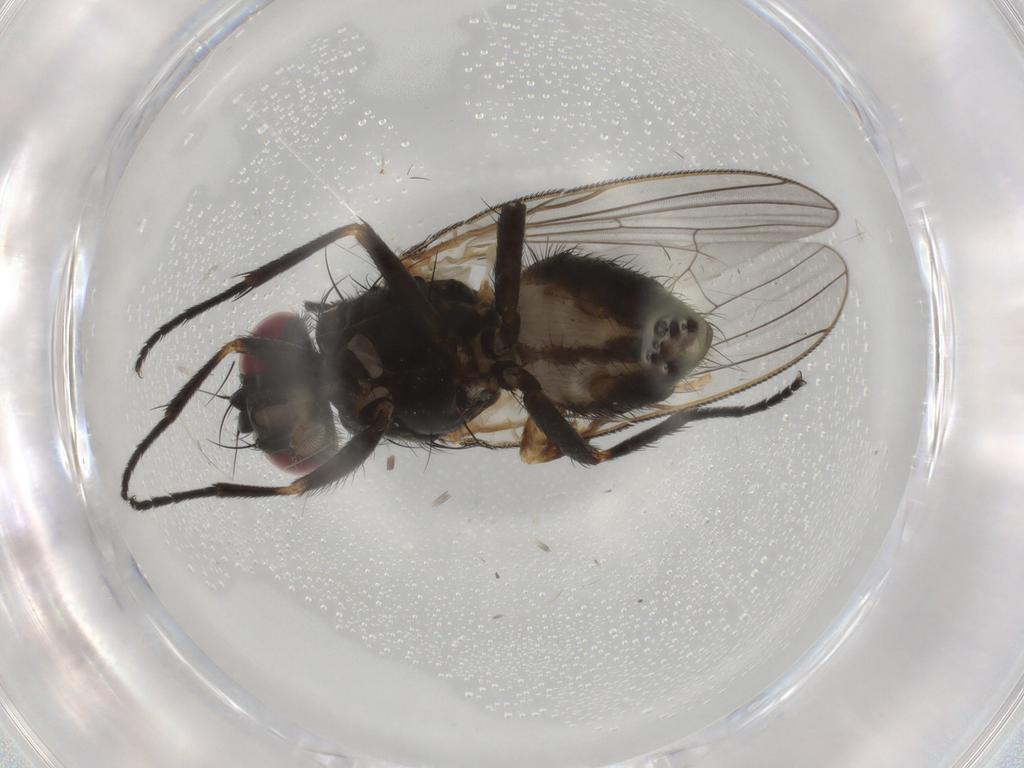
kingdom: Animalia
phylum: Arthropoda
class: Insecta
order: Diptera
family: Fannia
